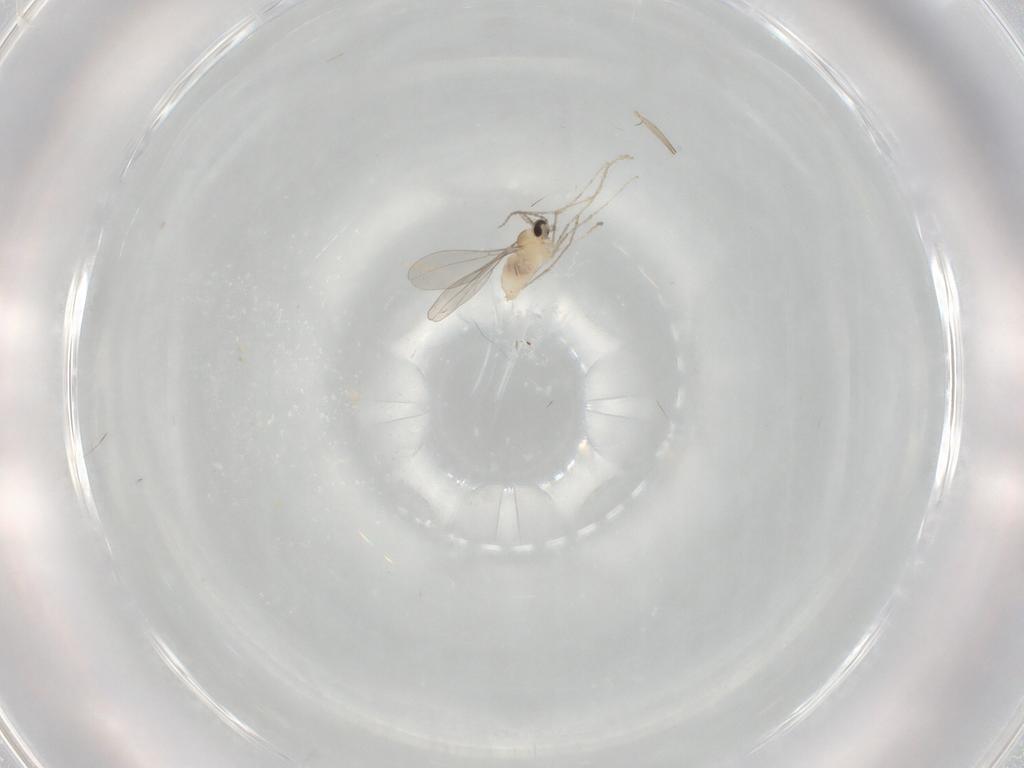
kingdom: Animalia
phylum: Arthropoda
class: Insecta
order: Diptera
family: Cecidomyiidae
